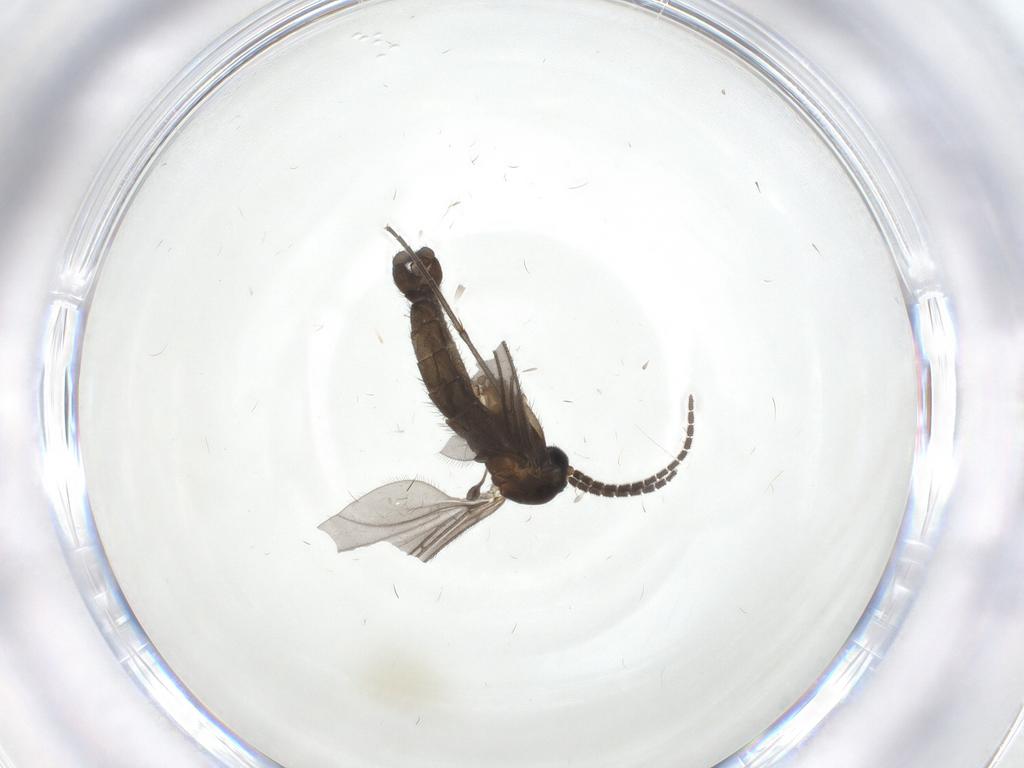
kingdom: Animalia
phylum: Arthropoda
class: Insecta
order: Diptera
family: Sciaridae
